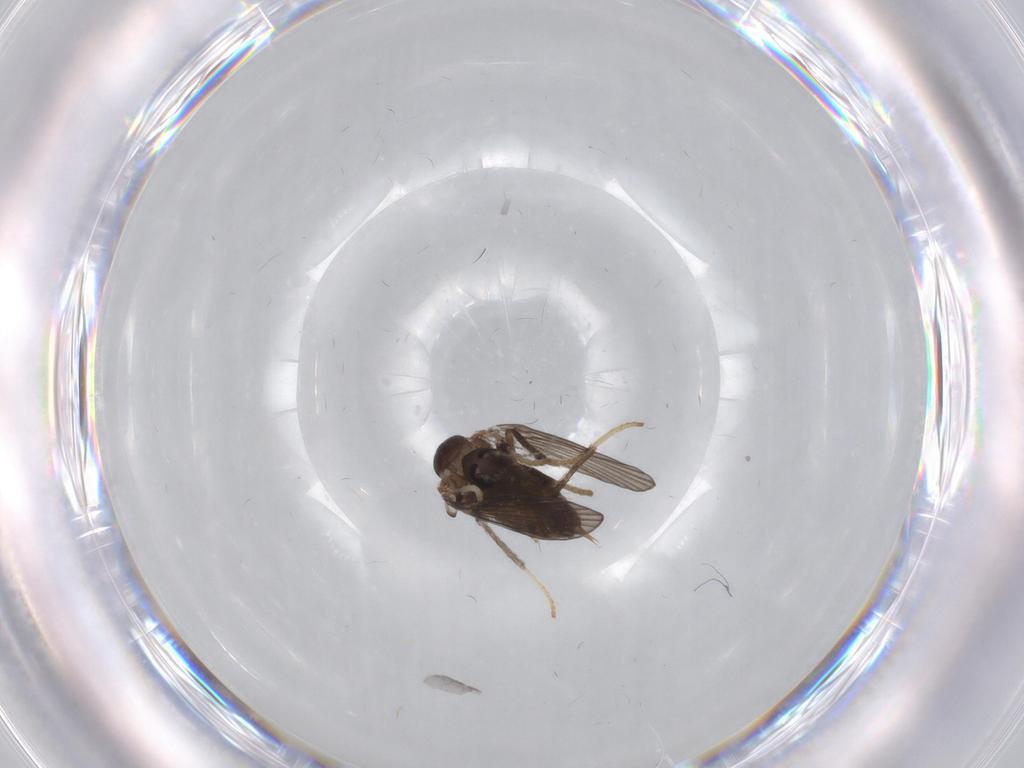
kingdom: Animalia
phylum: Arthropoda
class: Insecta
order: Diptera
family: Psychodidae
